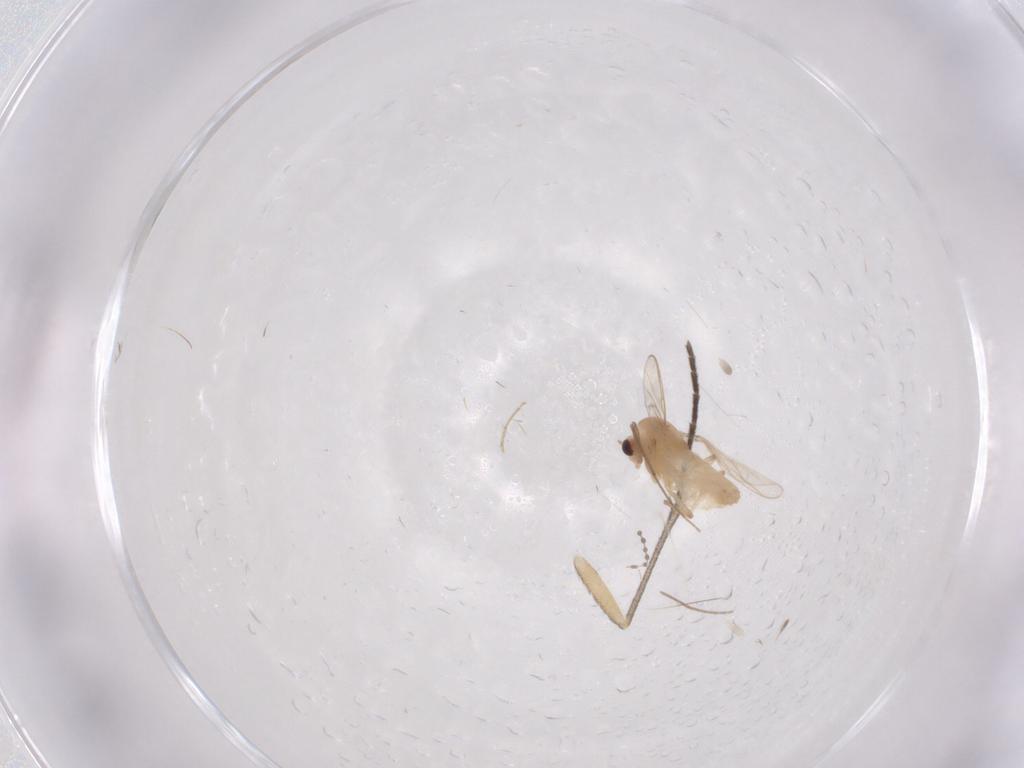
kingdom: Animalia
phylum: Arthropoda
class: Insecta
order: Diptera
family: Chironomidae
